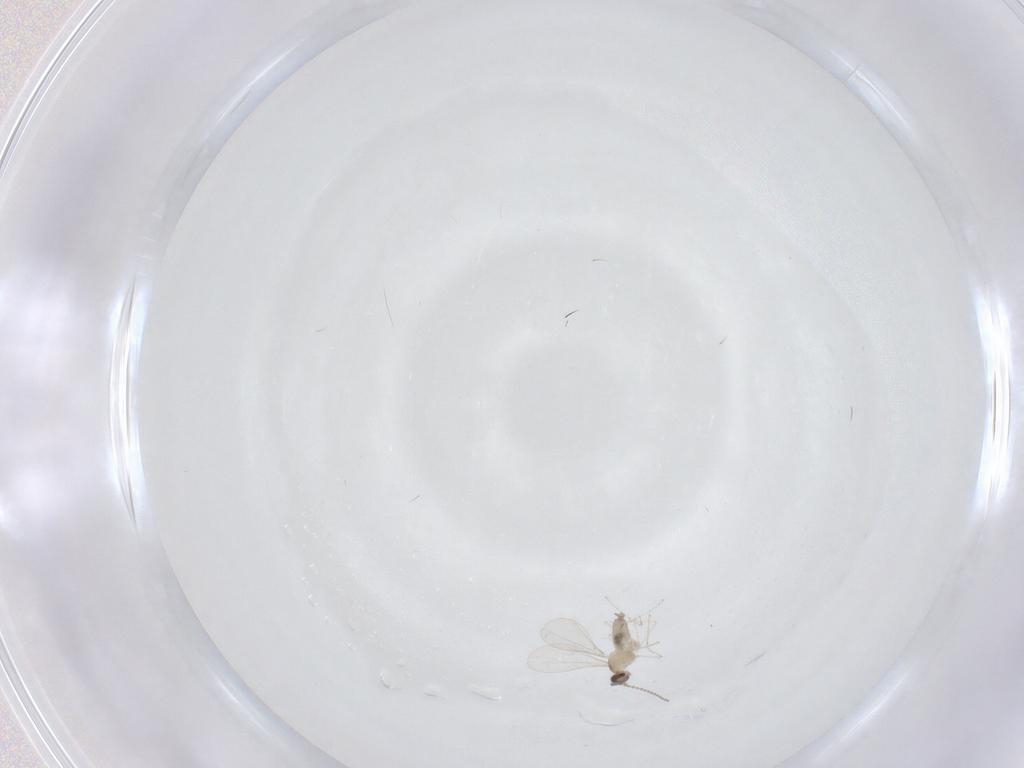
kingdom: Animalia
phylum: Arthropoda
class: Insecta
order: Diptera
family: Cecidomyiidae
